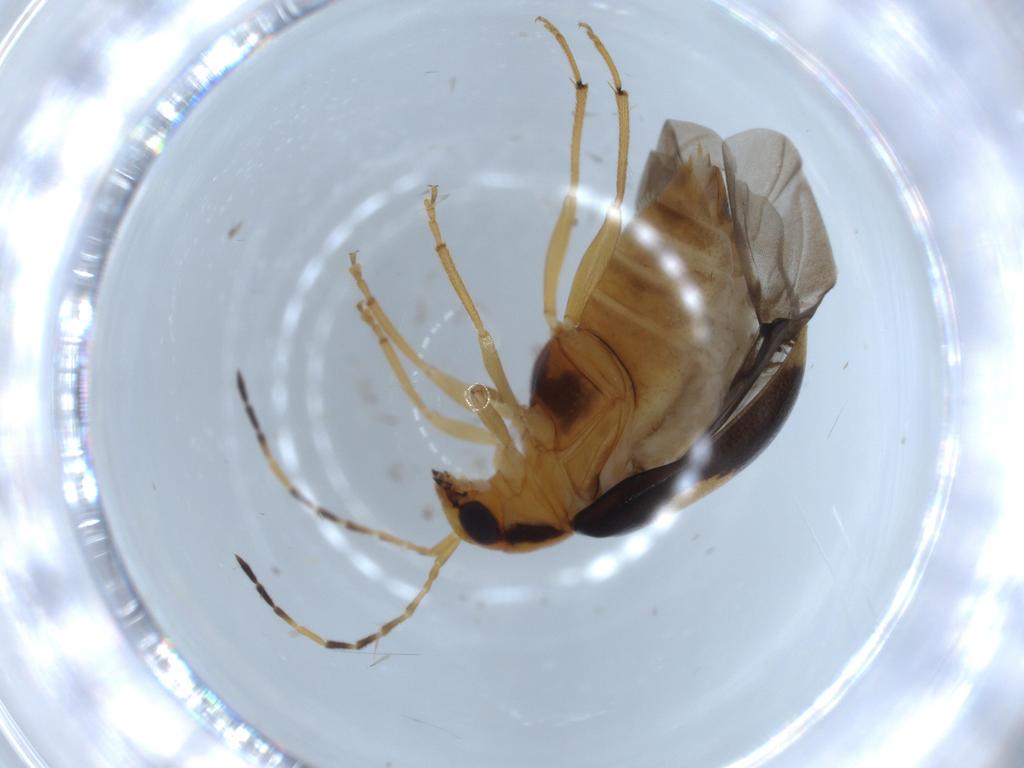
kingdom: Animalia
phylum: Arthropoda
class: Insecta
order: Coleoptera
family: Chrysomelidae
